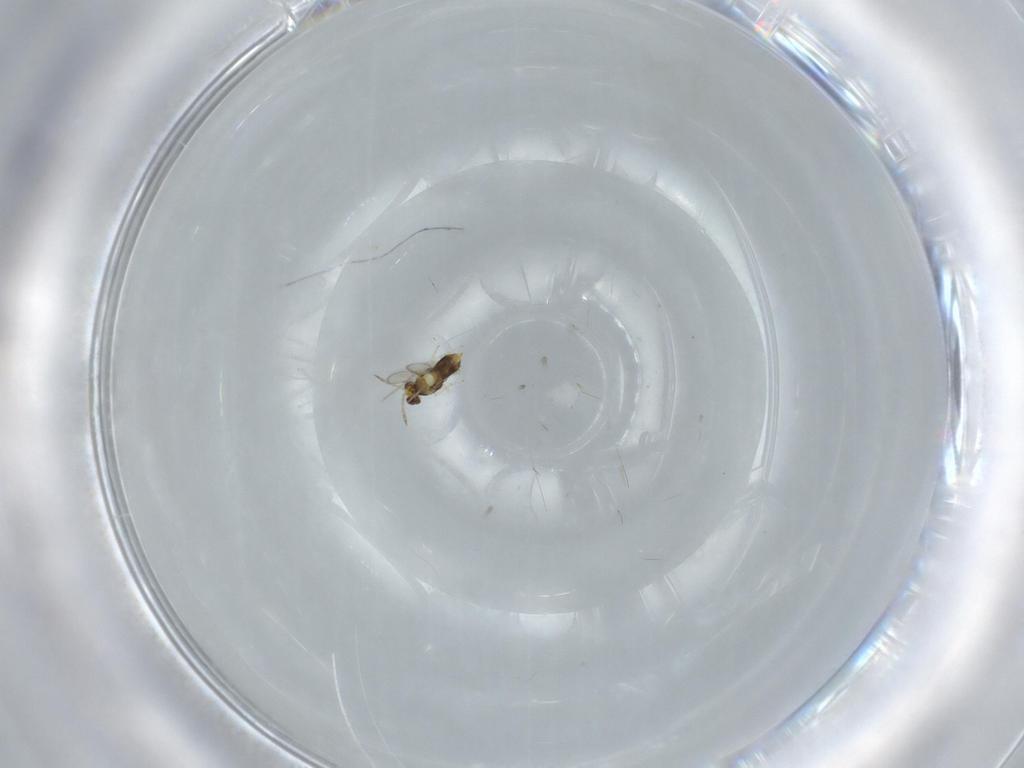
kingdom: Animalia
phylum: Arthropoda
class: Insecta
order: Hymenoptera
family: Aphelinidae
